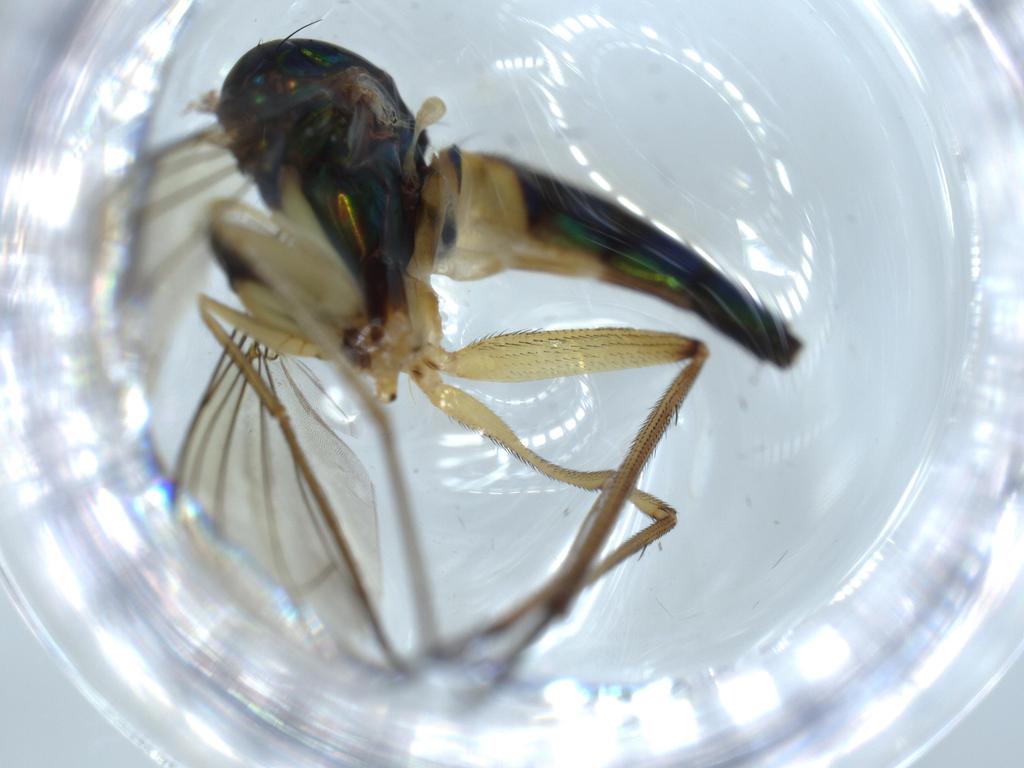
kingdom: Animalia
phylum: Arthropoda
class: Insecta
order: Diptera
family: Dolichopodidae
